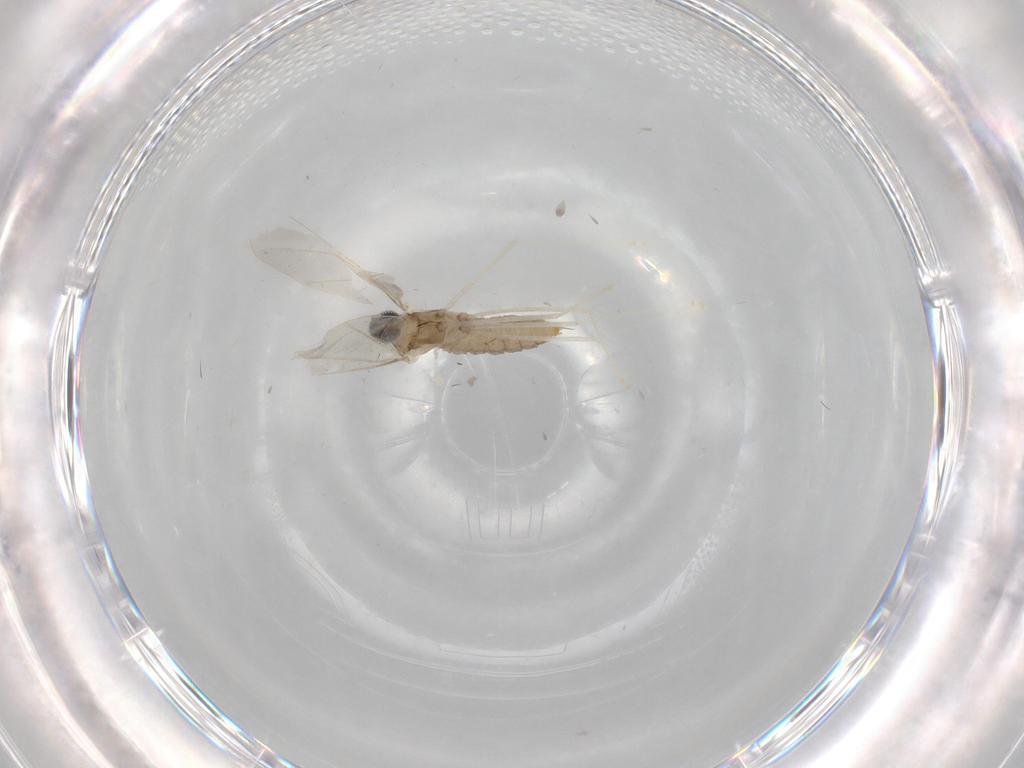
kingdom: Animalia
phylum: Arthropoda
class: Insecta
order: Diptera
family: Cecidomyiidae
